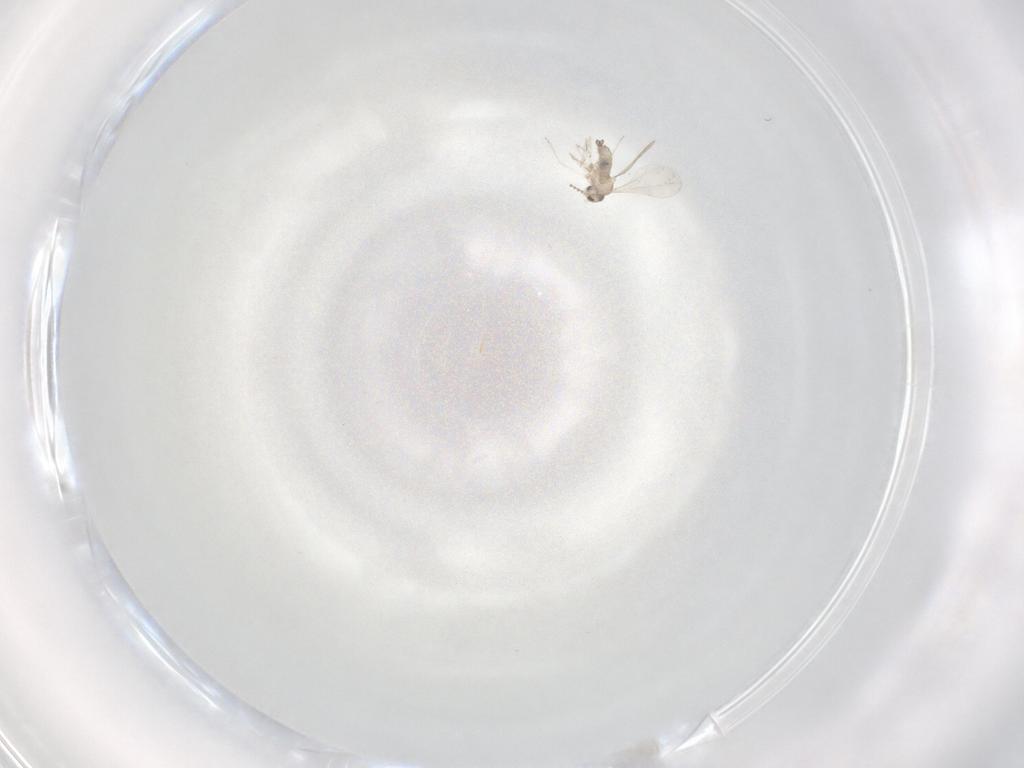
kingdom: Animalia
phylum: Arthropoda
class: Insecta
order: Diptera
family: Cecidomyiidae
